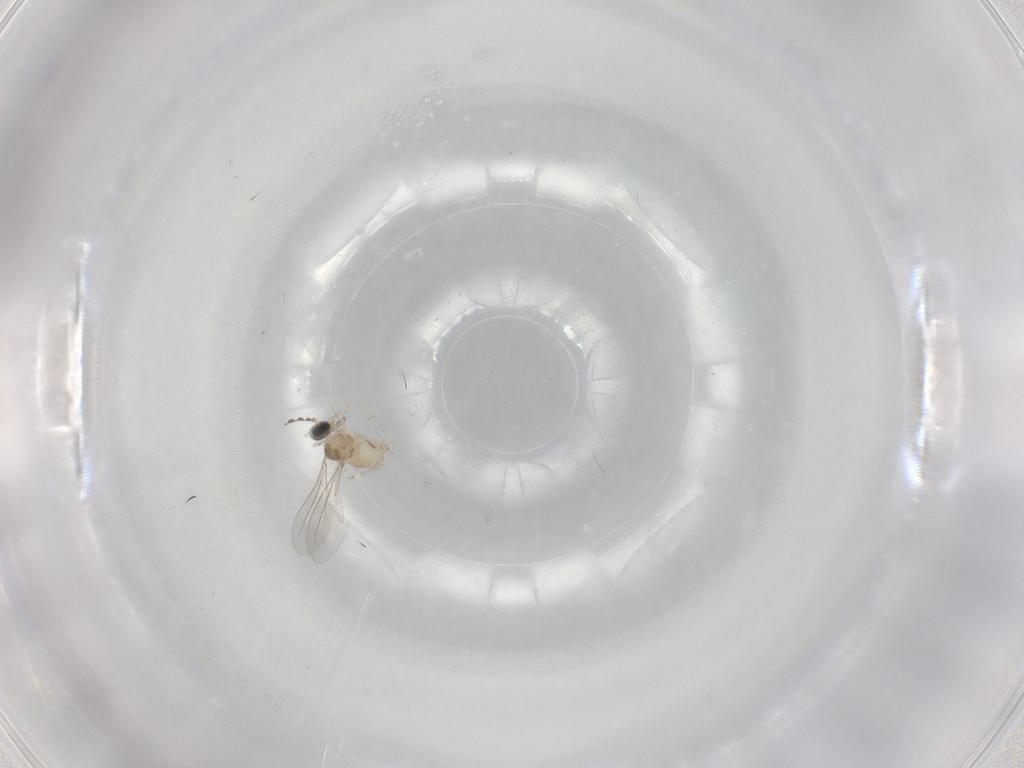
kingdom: Animalia
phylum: Arthropoda
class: Insecta
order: Diptera
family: Cecidomyiidae
